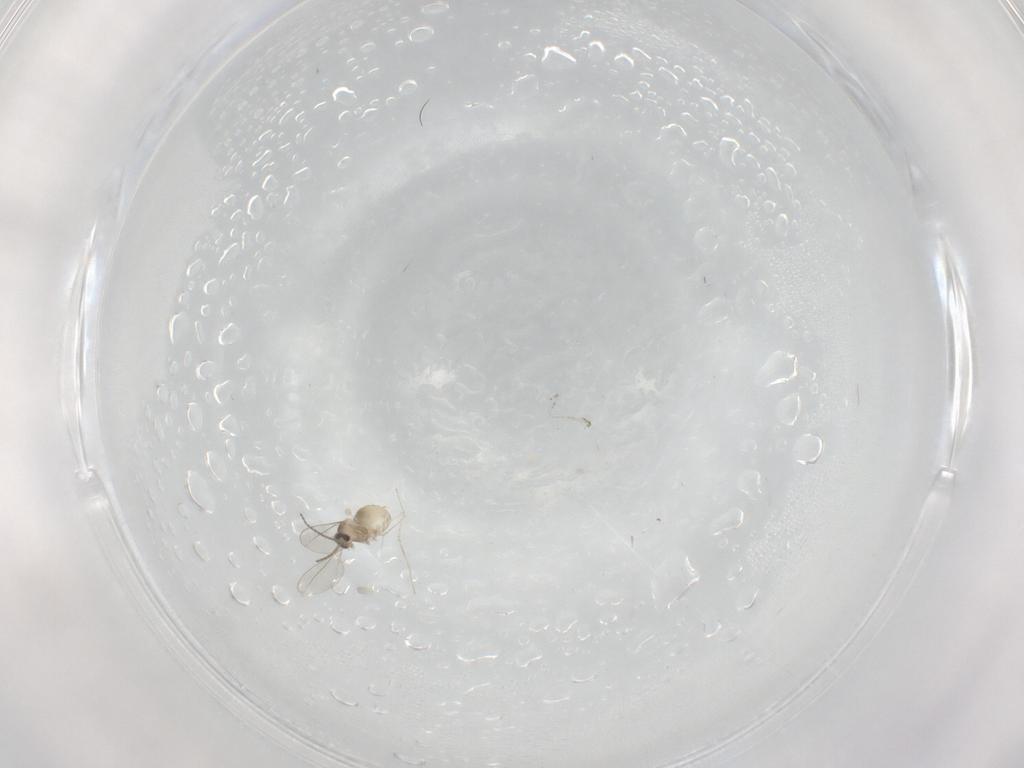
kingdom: Animalia
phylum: Arthropoda
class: Insecta
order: Diptera
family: Cecidomyiidae
